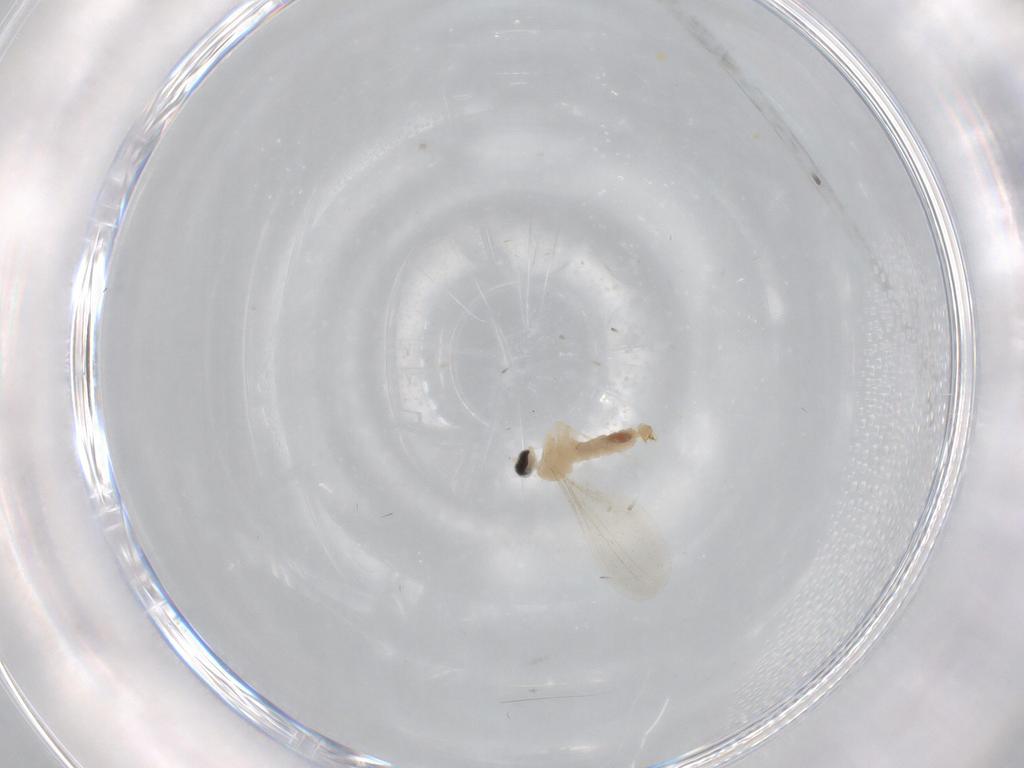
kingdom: Animalia
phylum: Arthropoda
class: Insecta
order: Diptera
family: Cecidomyiidae
